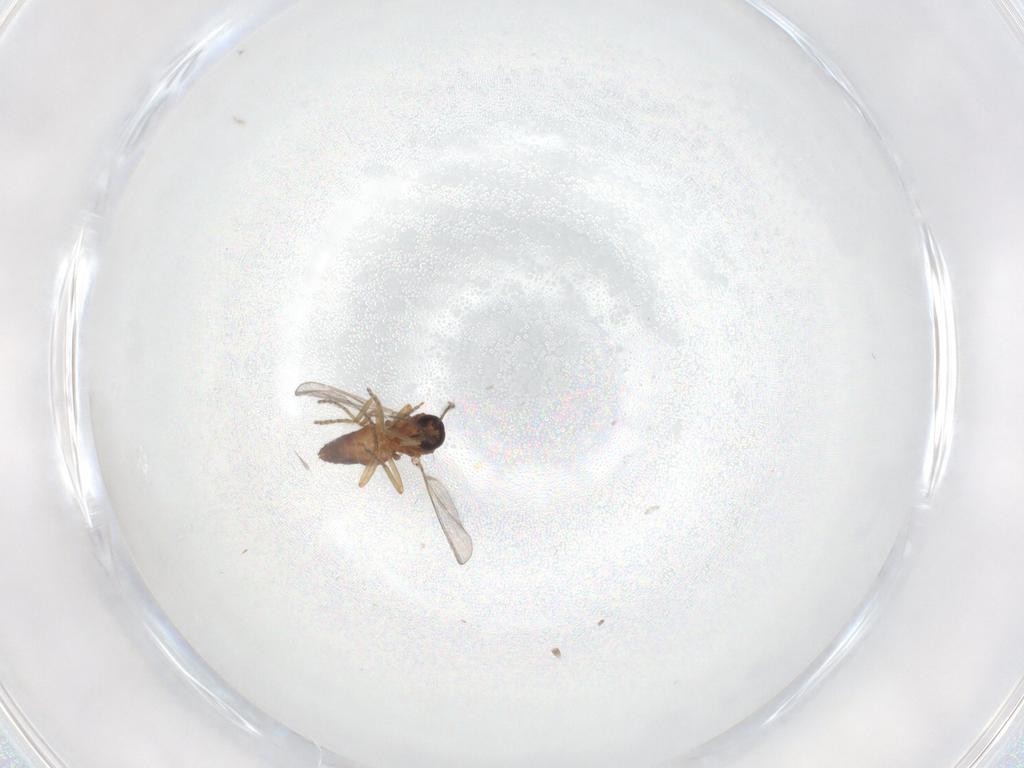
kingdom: Animalia
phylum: Arthropoda
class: Insecta
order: Diptera
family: Ceratopogonidae
